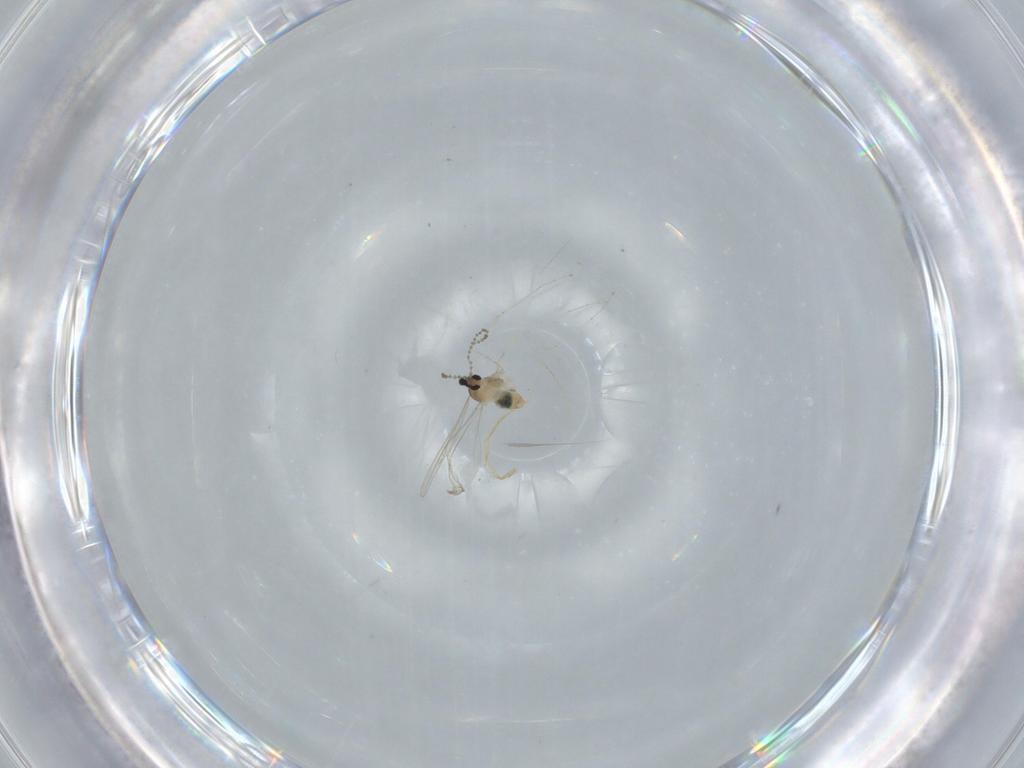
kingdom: Animalia
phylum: Arthropoda
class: Insecta
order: Diptera
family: Cecidomyiidae
